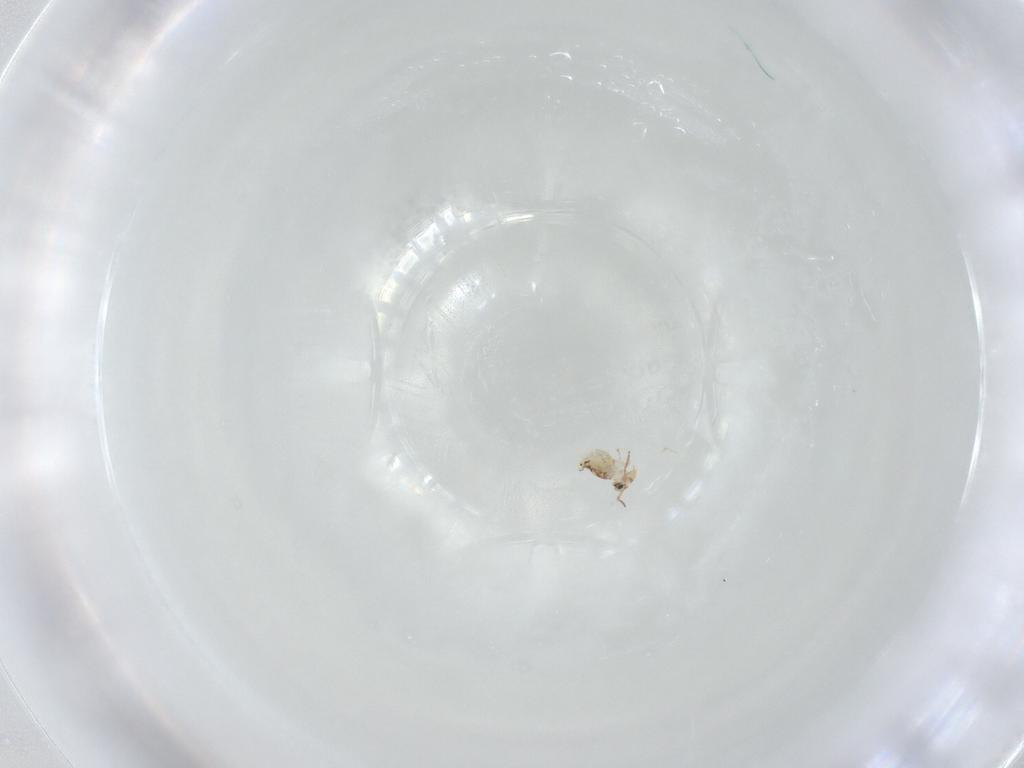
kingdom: Animalia
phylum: Arthropoda
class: Collembola
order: Symphypleona
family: Bourletiellidae
